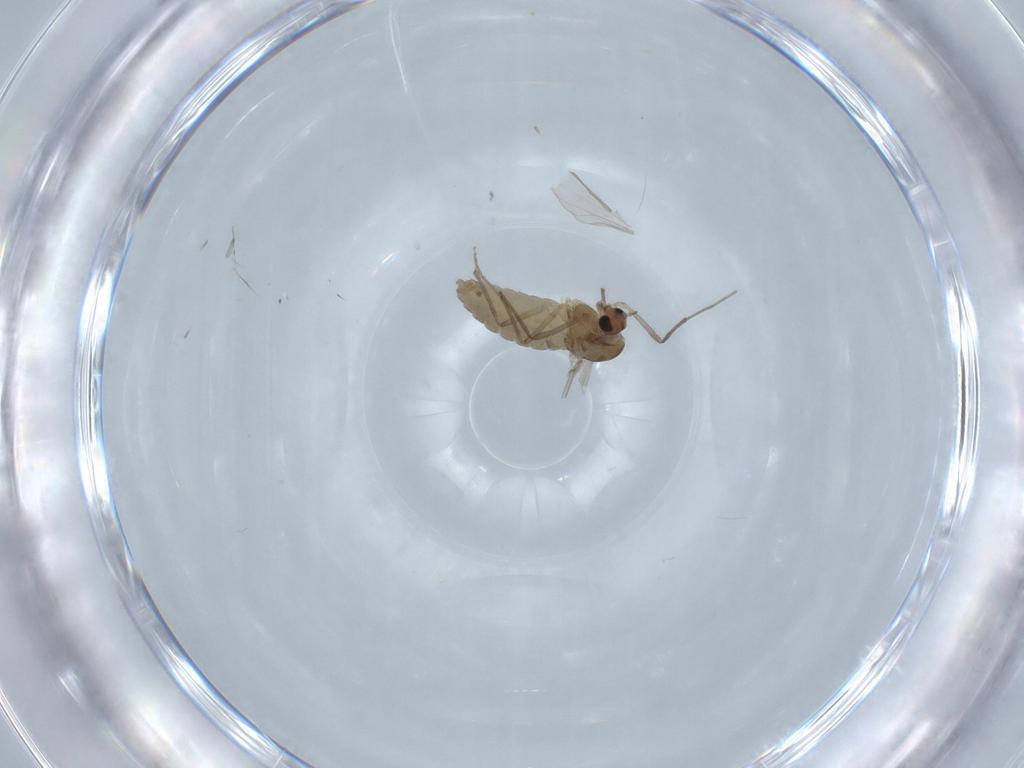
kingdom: Animalia
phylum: Arthropoda
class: Insecta
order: Diptera
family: Chironomidae
